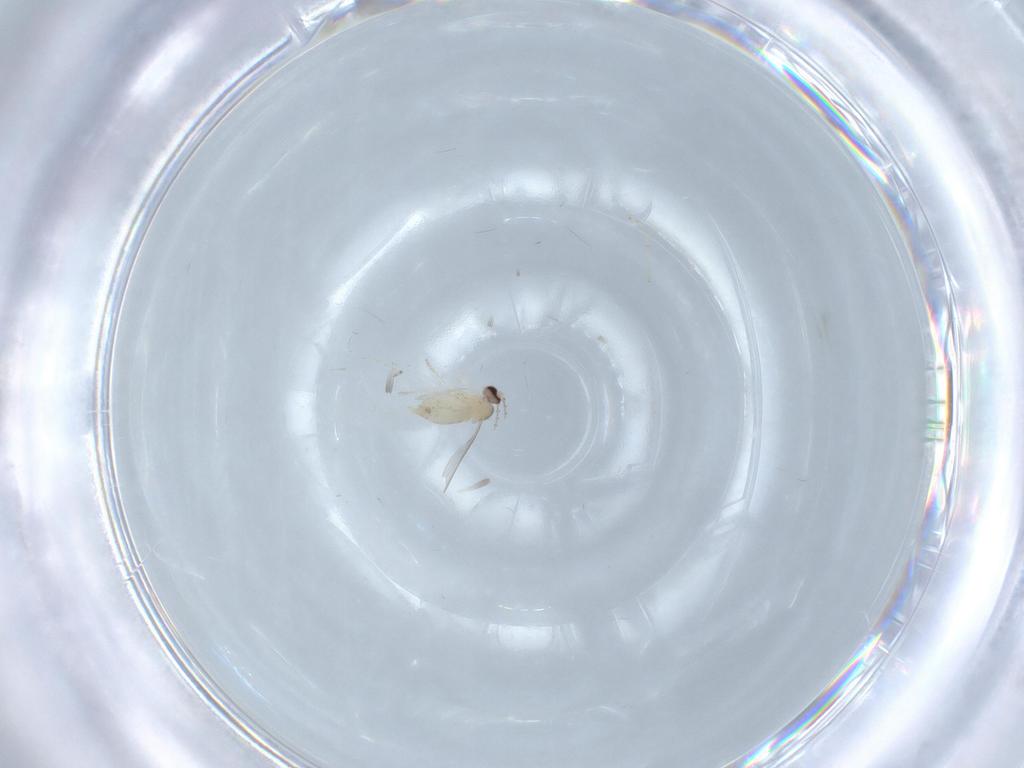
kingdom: Animalia
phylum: Arthropoda
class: Insecta
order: Diptera
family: Cecidomyiidae
